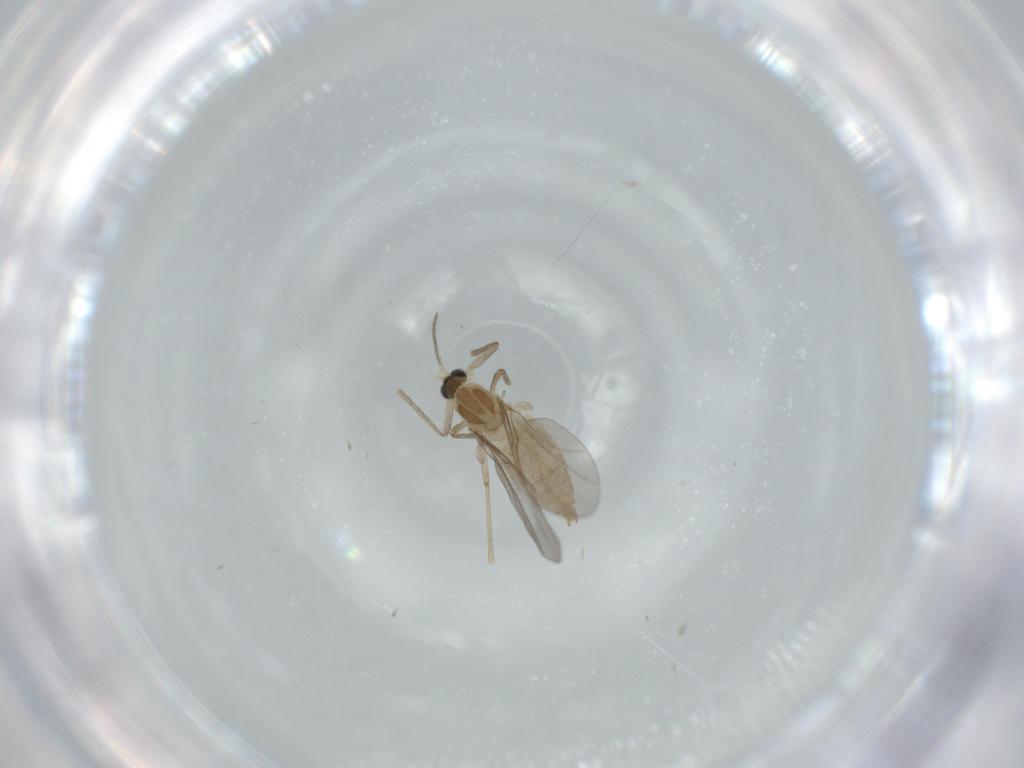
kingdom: Animalia
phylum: Arthropoda
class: Insecta
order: Diptera
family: Cecidomyiidae
